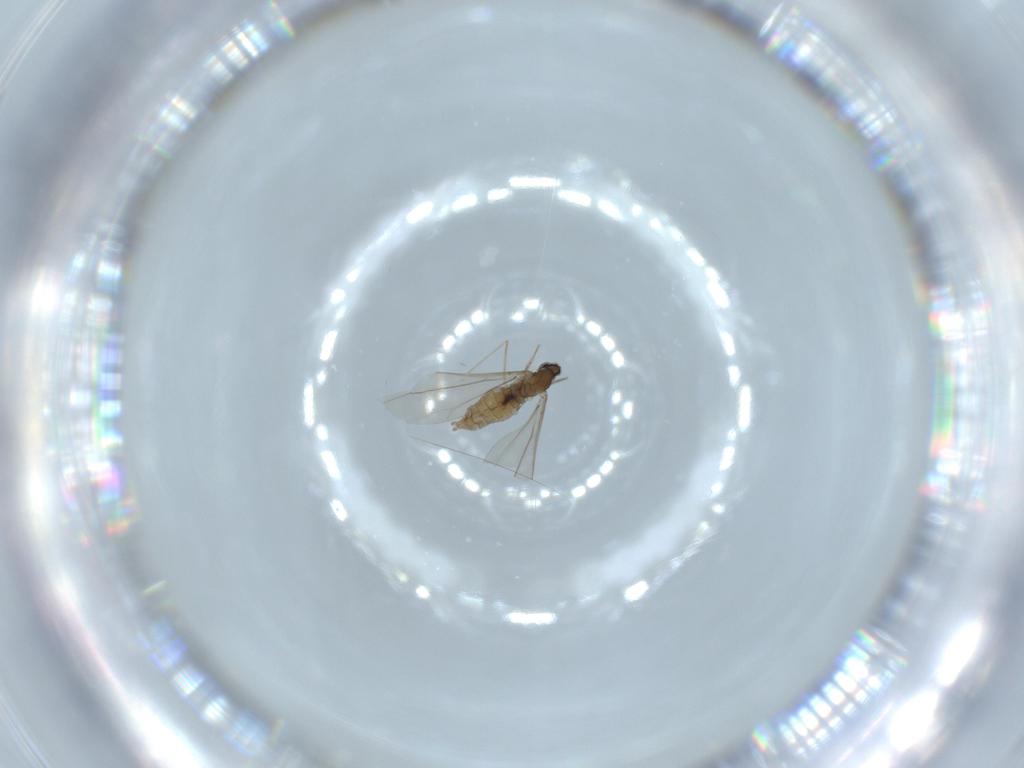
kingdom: Animalia
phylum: Arthropoda
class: Insecta
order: Diptera
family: Cecidomyiidae
